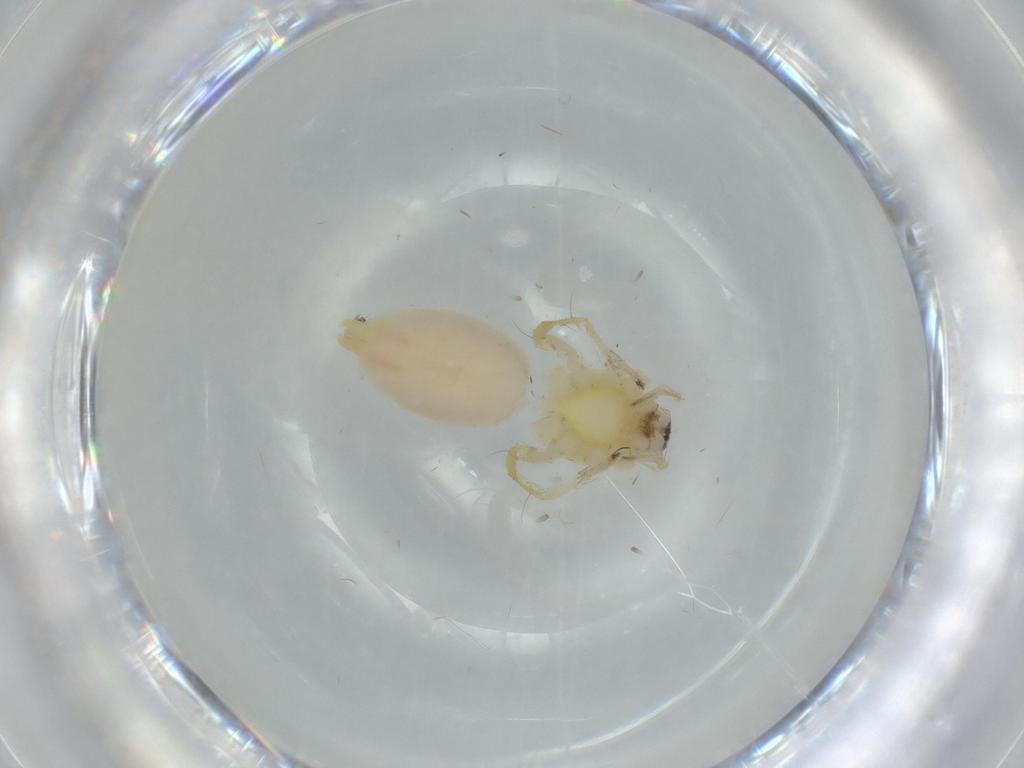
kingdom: Animalia
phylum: Arthropoda
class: Arachnida
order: Araneae
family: Anyphaenidae
